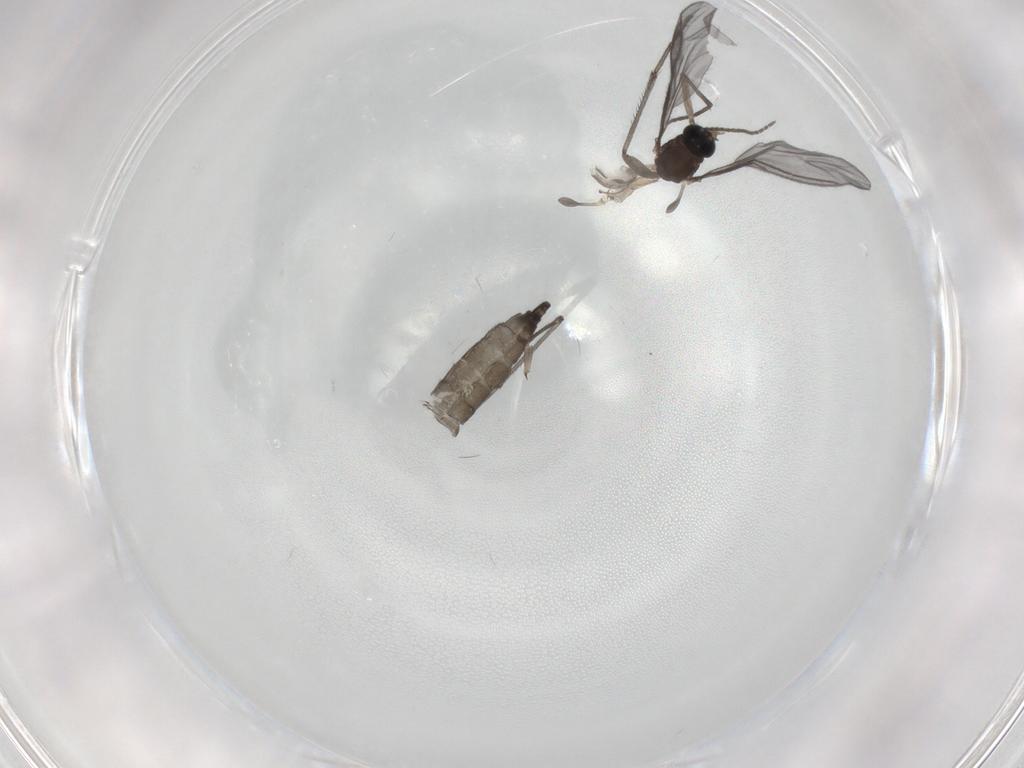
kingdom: Animalia
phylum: Arthropoda
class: Insecta
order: Diptera
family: Sciaridae
